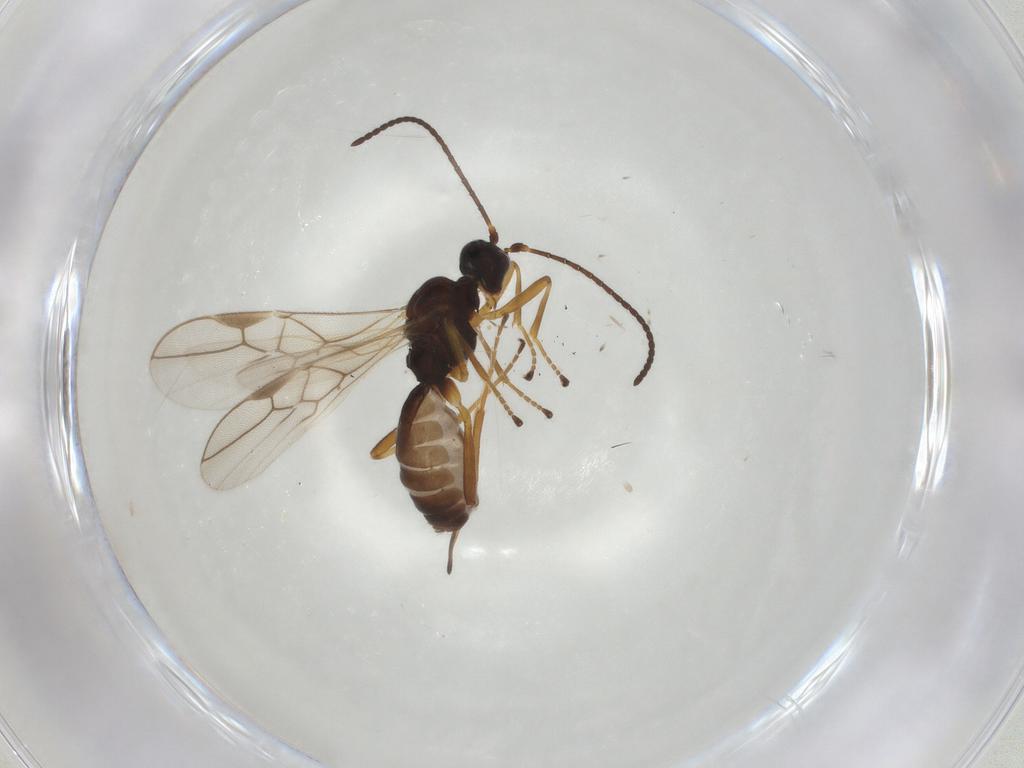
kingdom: Animalia
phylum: Arthropoda
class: Insecta
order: Hymenoptera
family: Braconidae
